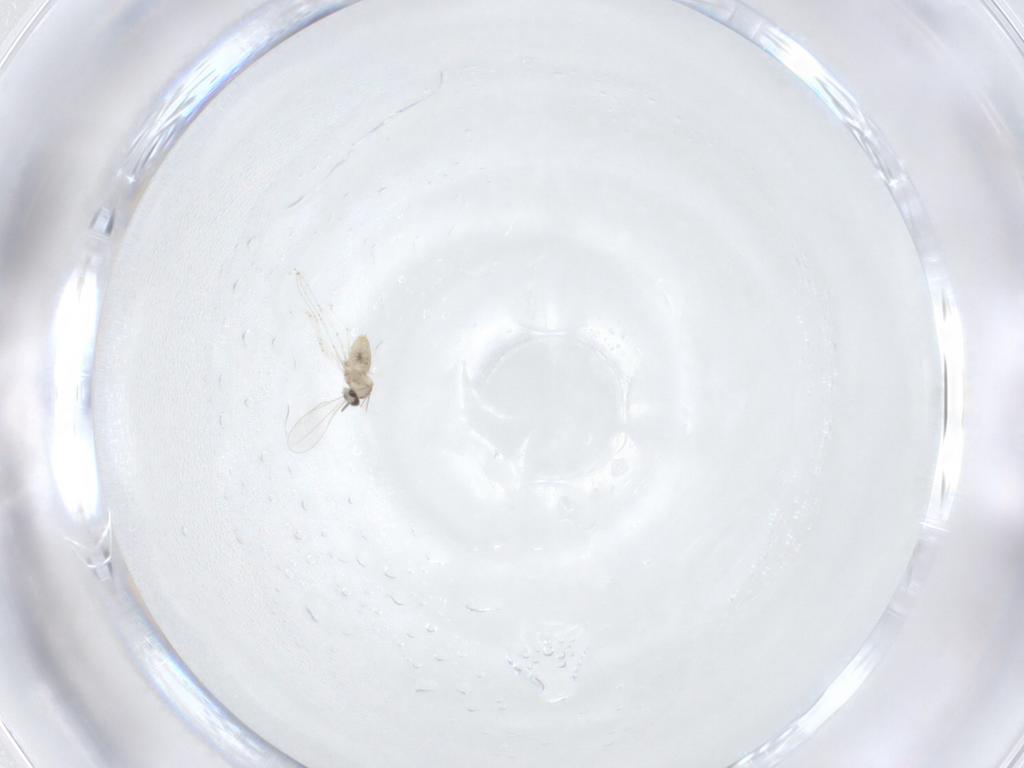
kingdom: Animalia
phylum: Arthropoda
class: Insecta
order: Diptera
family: Cecidomyiidae
